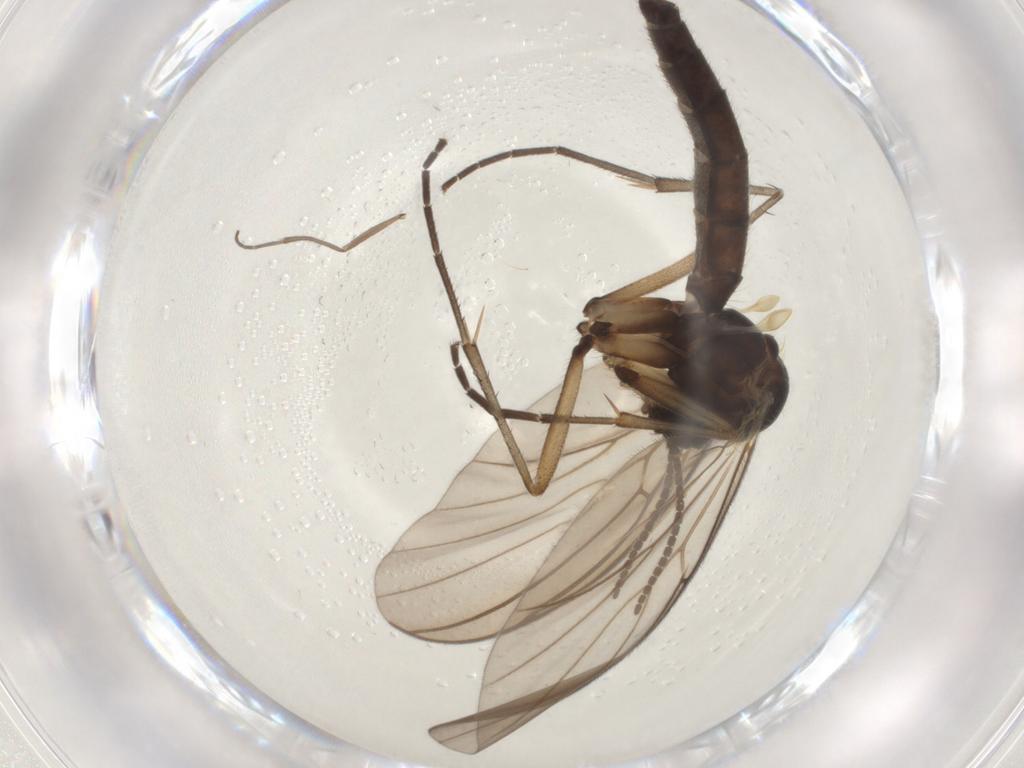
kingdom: Animalia
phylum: Arthropoda
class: Insecta
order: Diptera
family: Sciaridae
